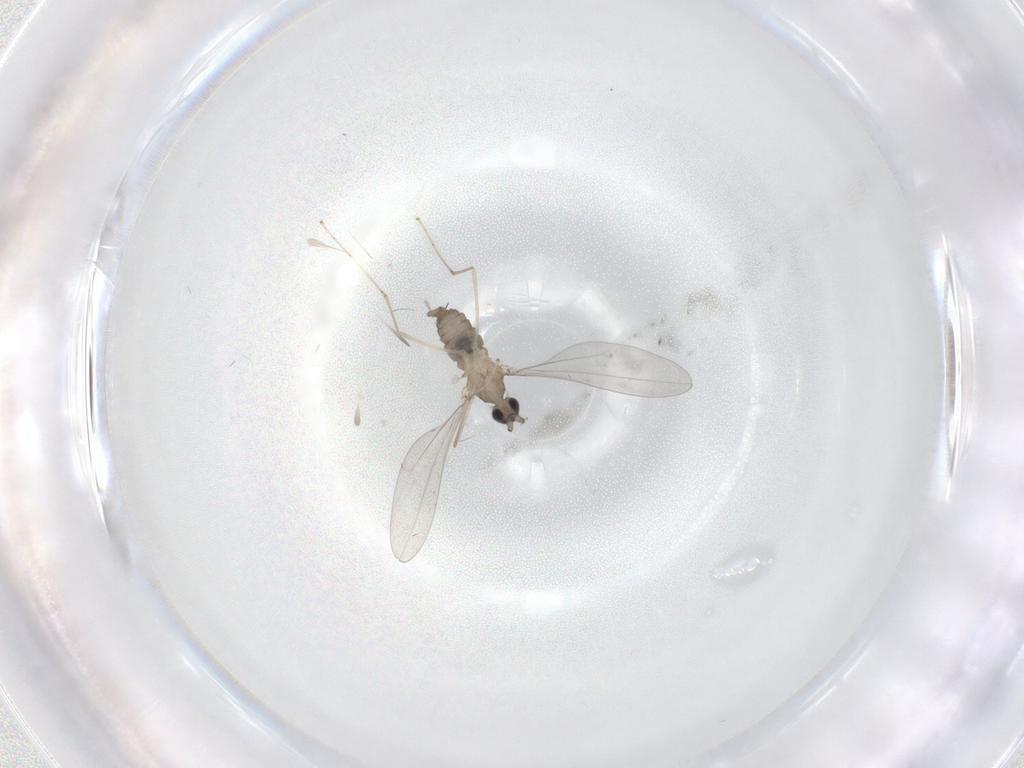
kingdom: Animalia
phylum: Arthropoda
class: Insecta
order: Diptera
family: Cecidomyiidae
